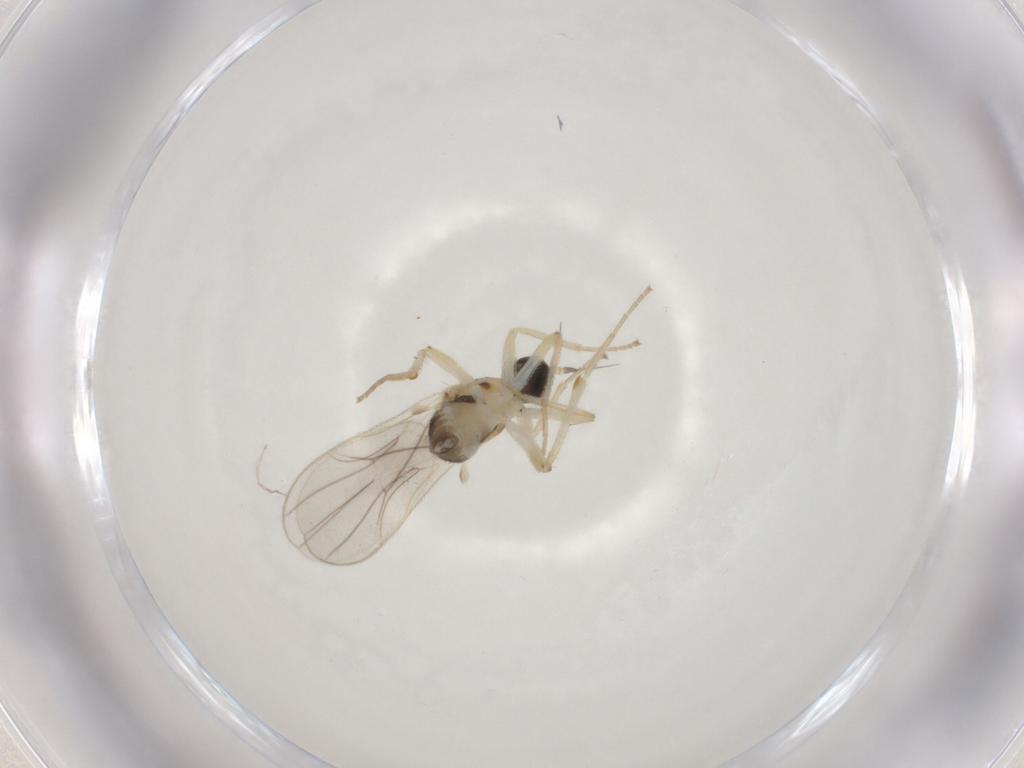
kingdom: Animalia
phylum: Arthropoda
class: Insecta
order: Diptera
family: Hybotidae
